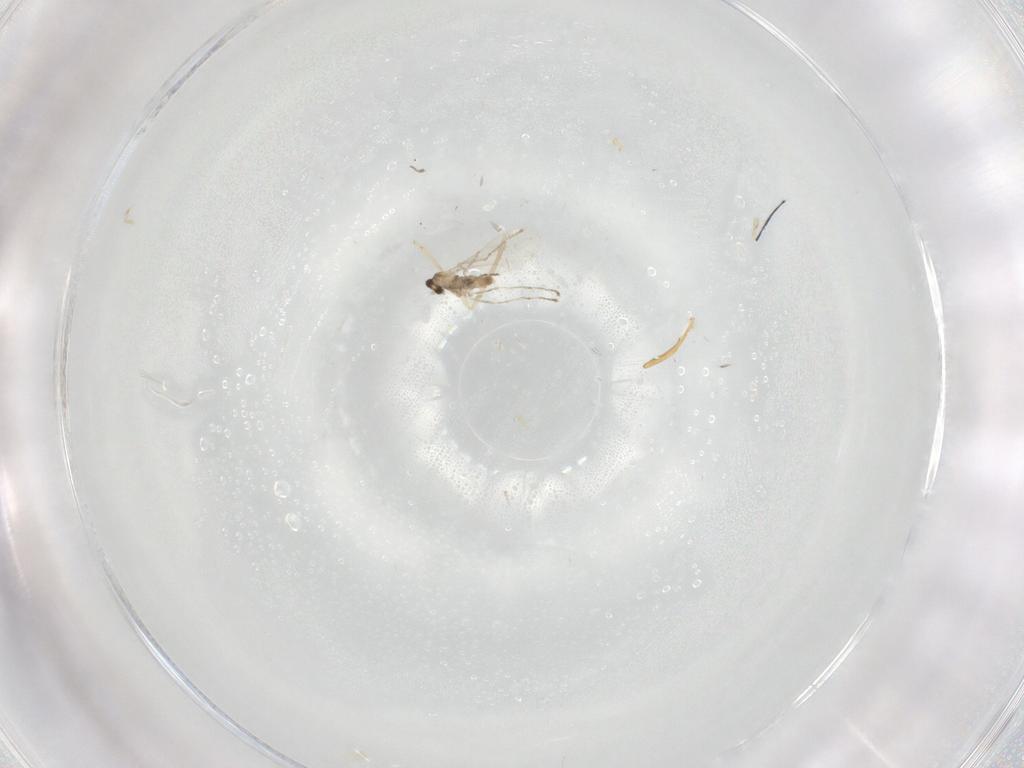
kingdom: Animalia
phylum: Arthropoda
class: Insecta
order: Diptera
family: Cecidomyiidae
